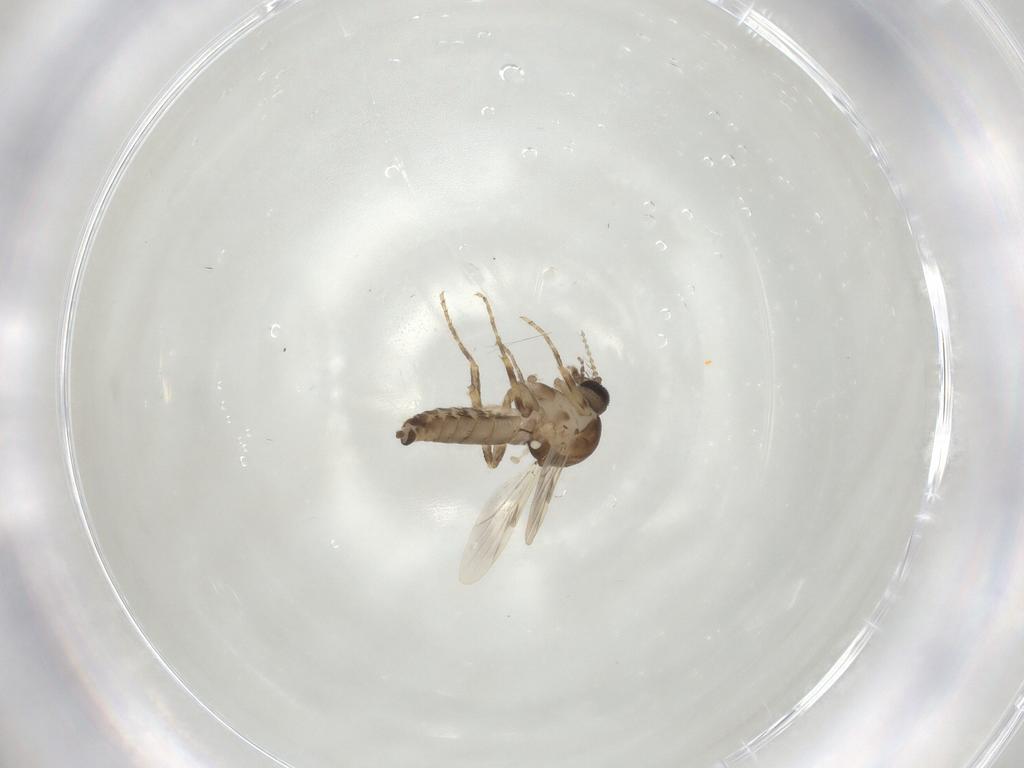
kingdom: Animalia
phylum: Arthropoda
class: Insecta
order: Diptera
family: Ceratopogonidae
